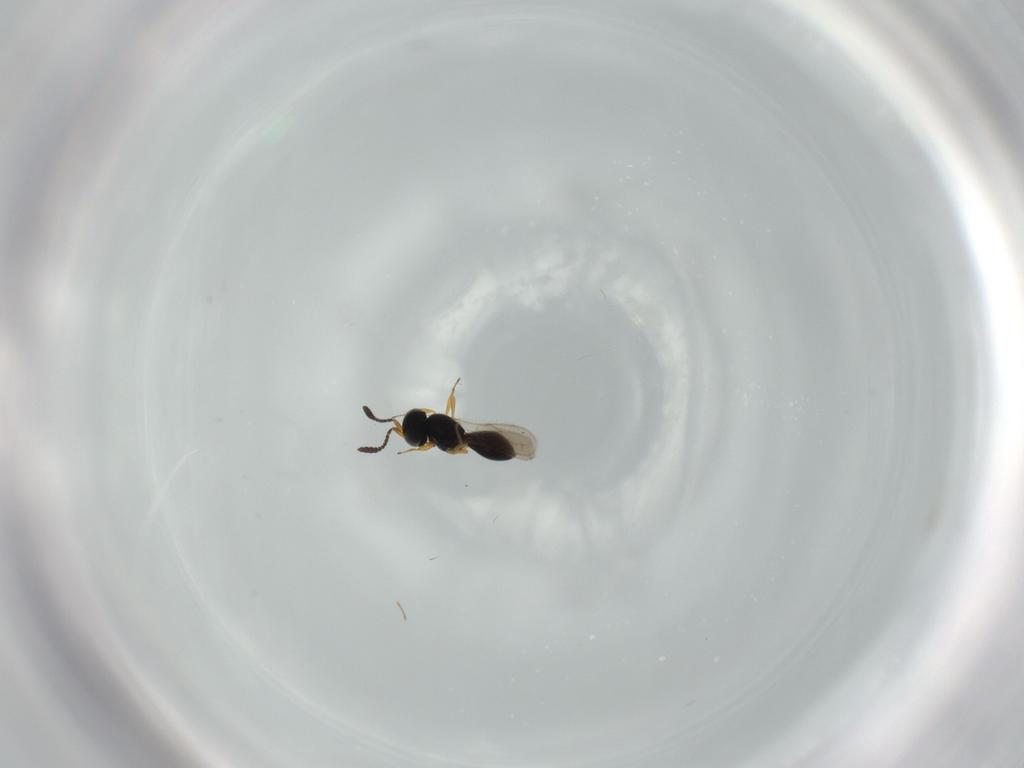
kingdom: Animalia
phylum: Arthropoda
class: Insecta
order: Hymenoptera
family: Scelionidae
